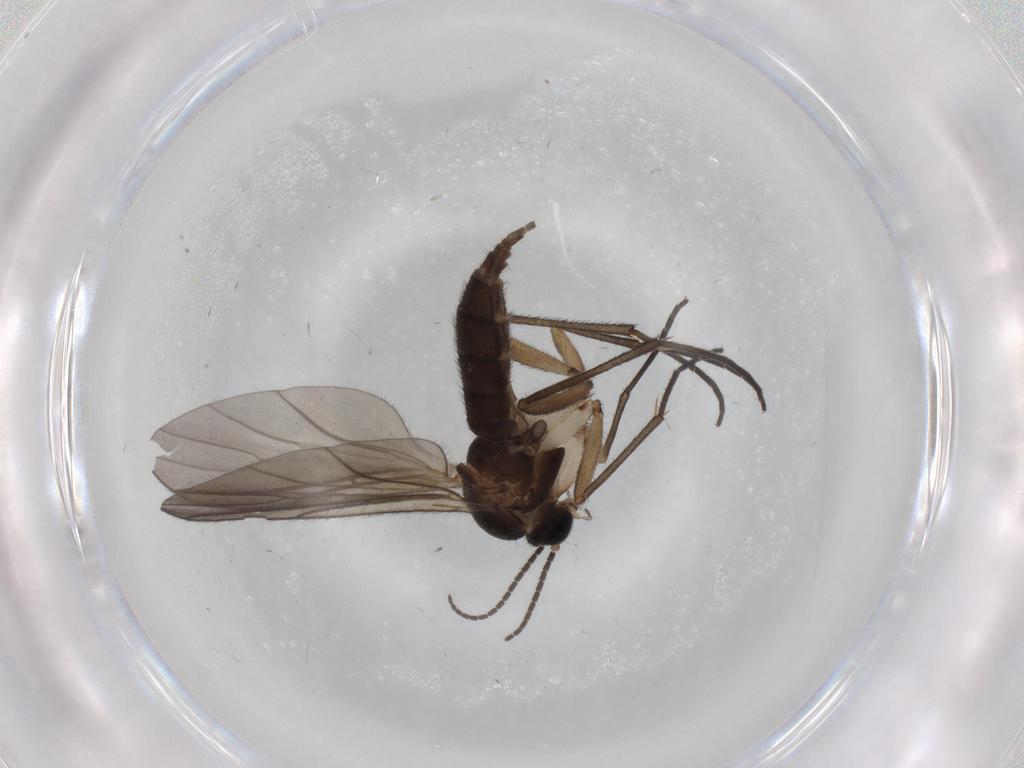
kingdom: Animalia
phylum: Arthropoda
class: Insecta
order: Diptera
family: Sciaridae
